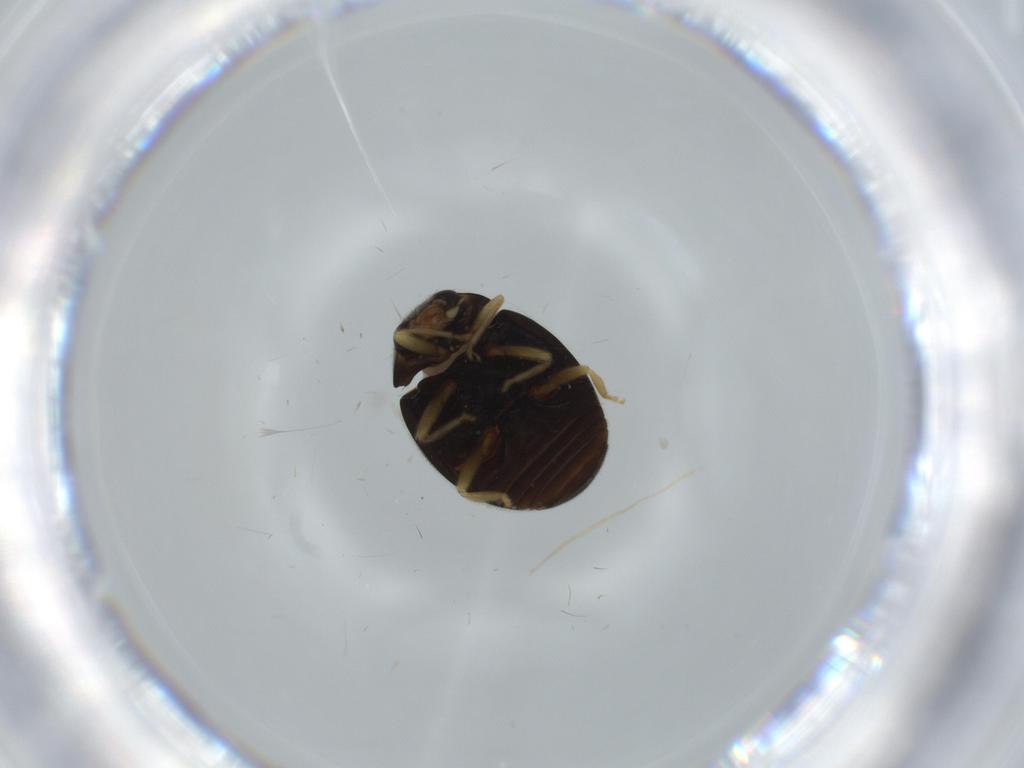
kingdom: Animalia
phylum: Arthropoda
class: Insecta
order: Coleoptera
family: Coccinellidae
